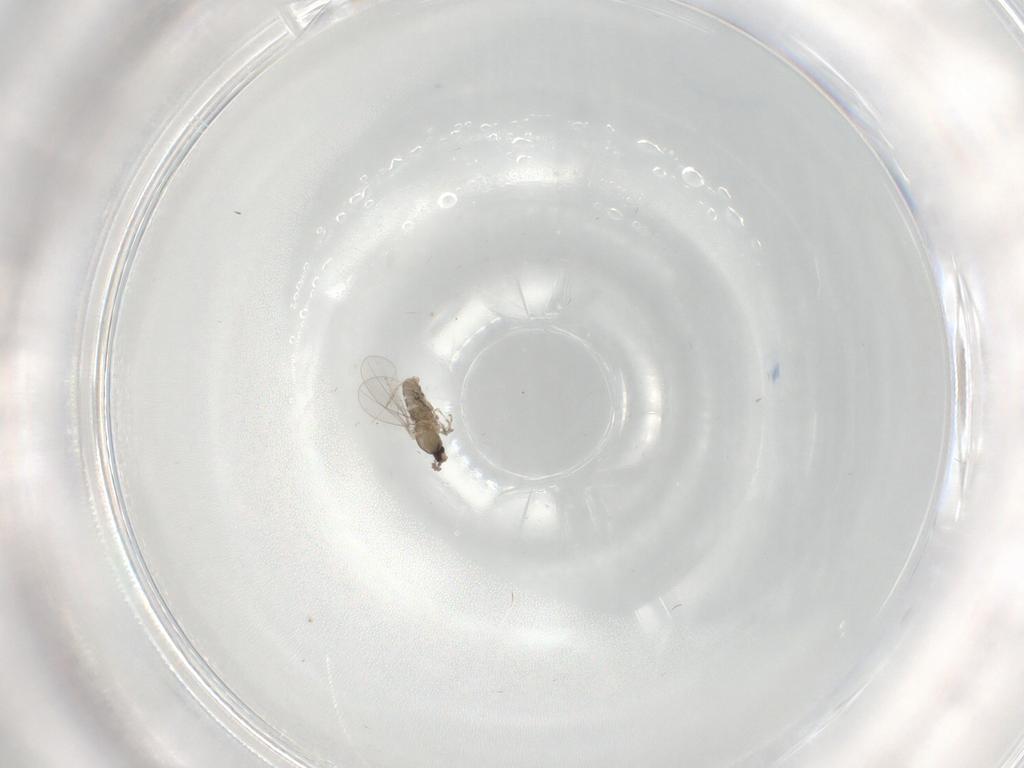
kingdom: Animalia
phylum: Arthropoda
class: Insecta
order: Diptera
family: Cecidomyiidae
